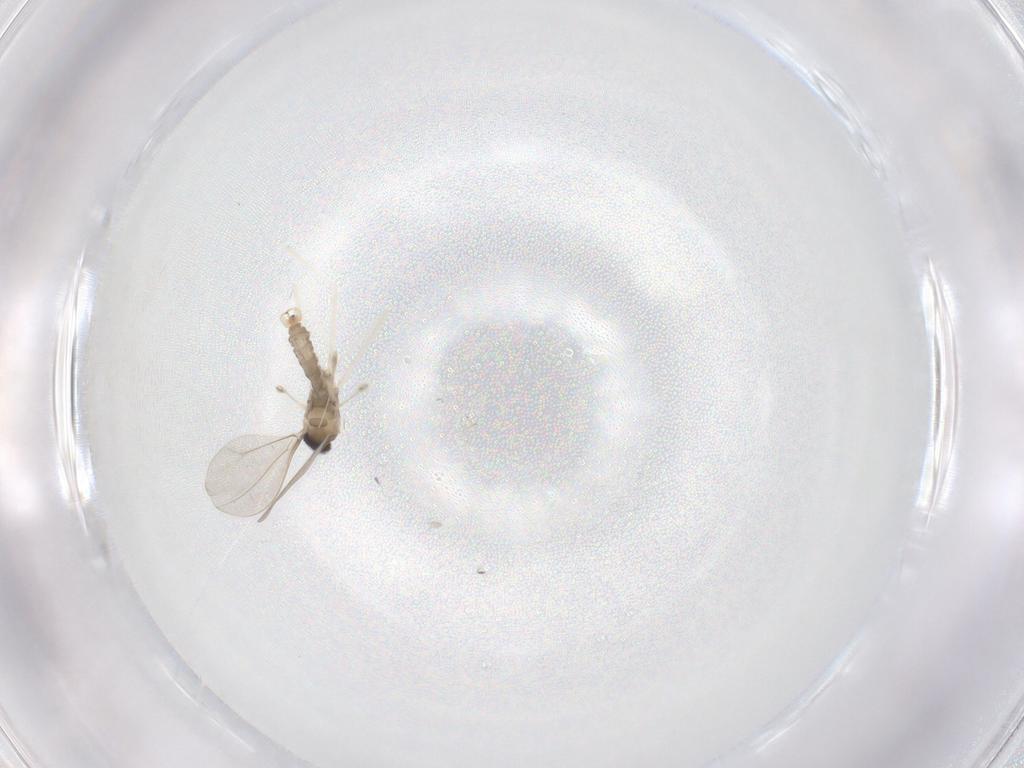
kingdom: Animalia
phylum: Arthropoda
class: Insecta
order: Diptera
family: Cecidomyiidae
